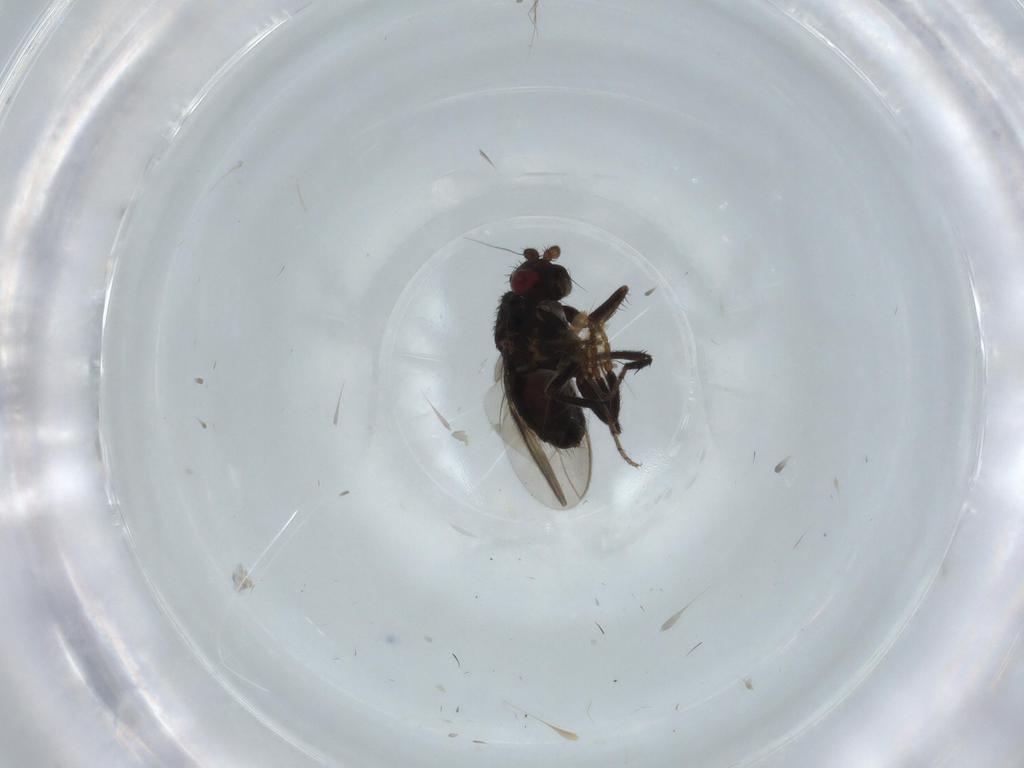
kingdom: Animalia
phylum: Arthropoda
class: Insecta
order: Diptera
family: Sphaeroceridae
